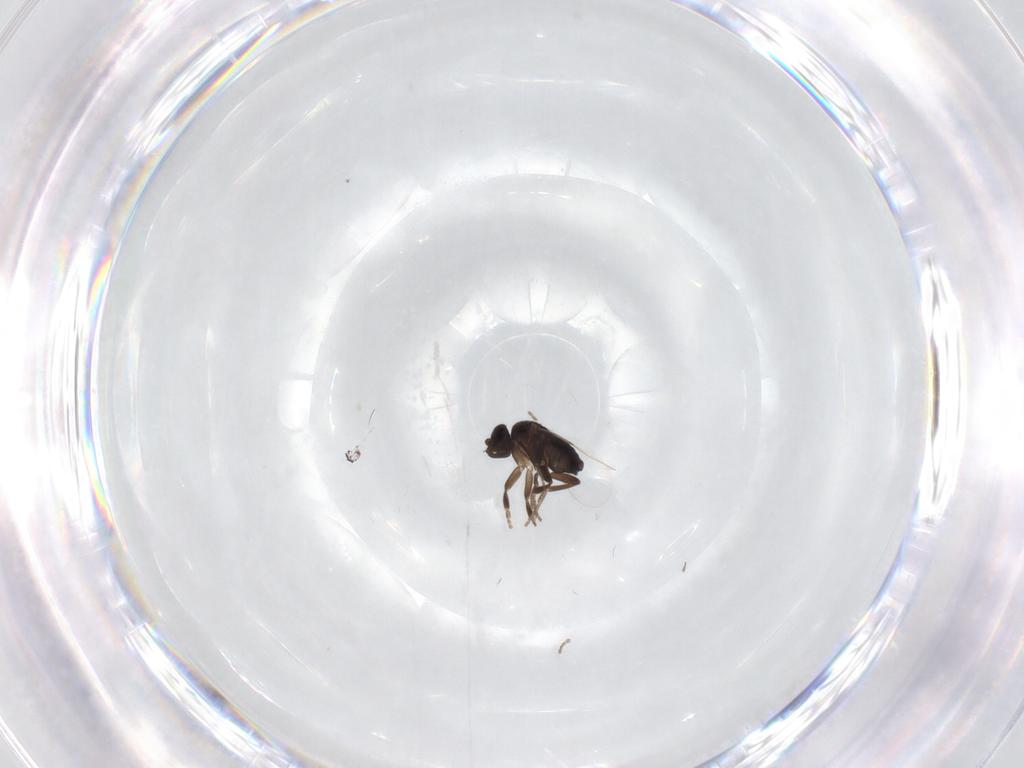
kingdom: Animalia
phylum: Arthropoda
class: Insecta
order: Diptera
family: Phoridae
